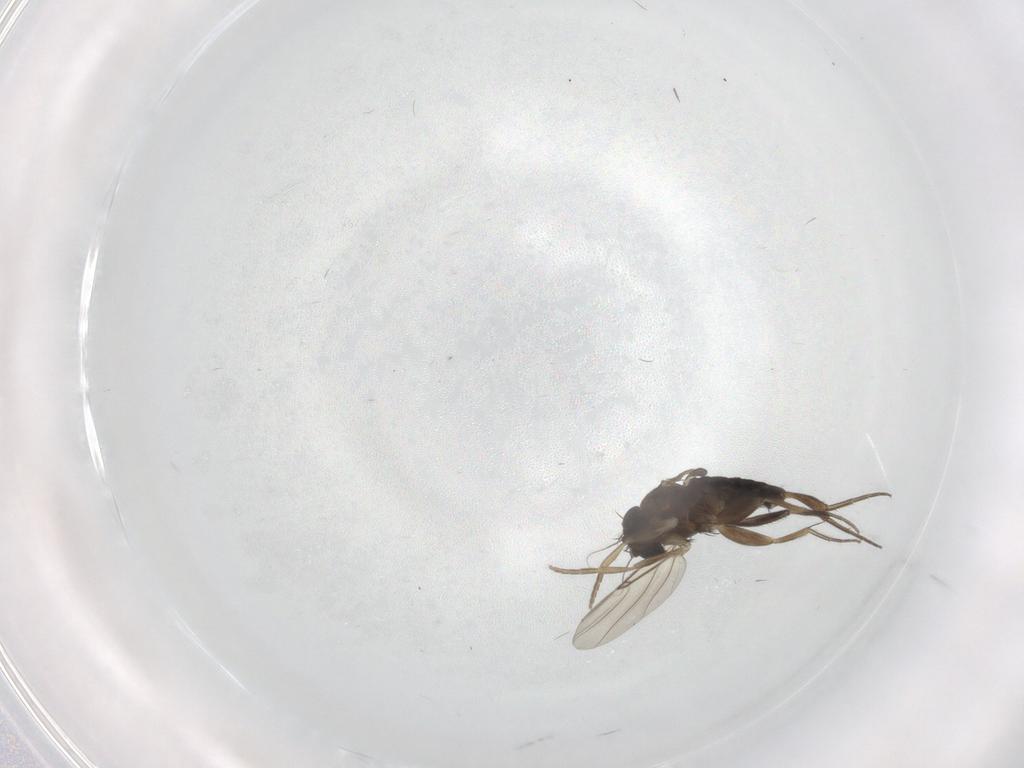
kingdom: Animalia
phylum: Arthropoda
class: Insecta
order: Diptera
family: Phoridae
